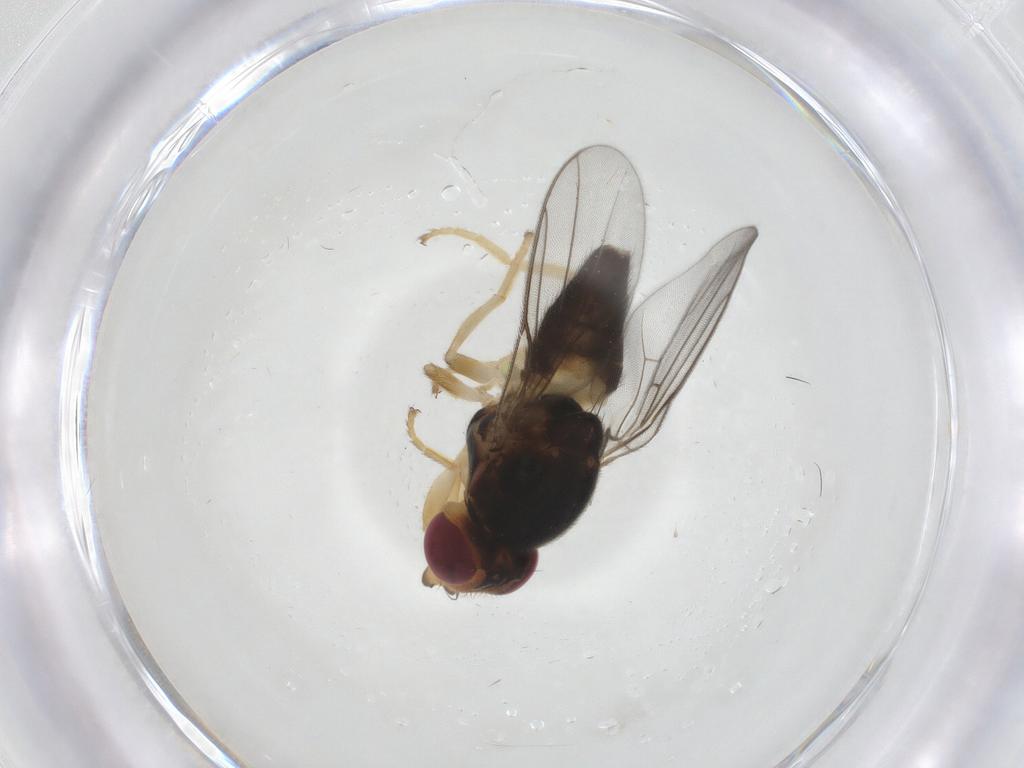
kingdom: Animalia
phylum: Arthropoda
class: Insecta
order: Diptera
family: Chloropidae
